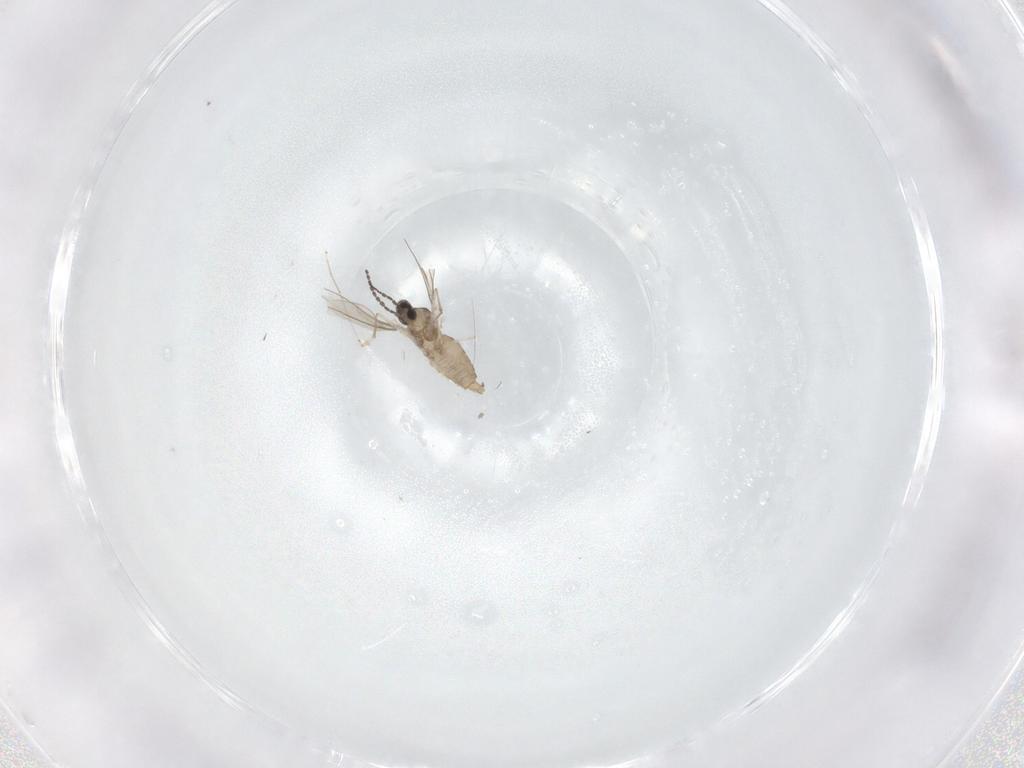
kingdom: Animalia
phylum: Arthropoda
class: Insecta
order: Diptera
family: Cecidomyiidae
